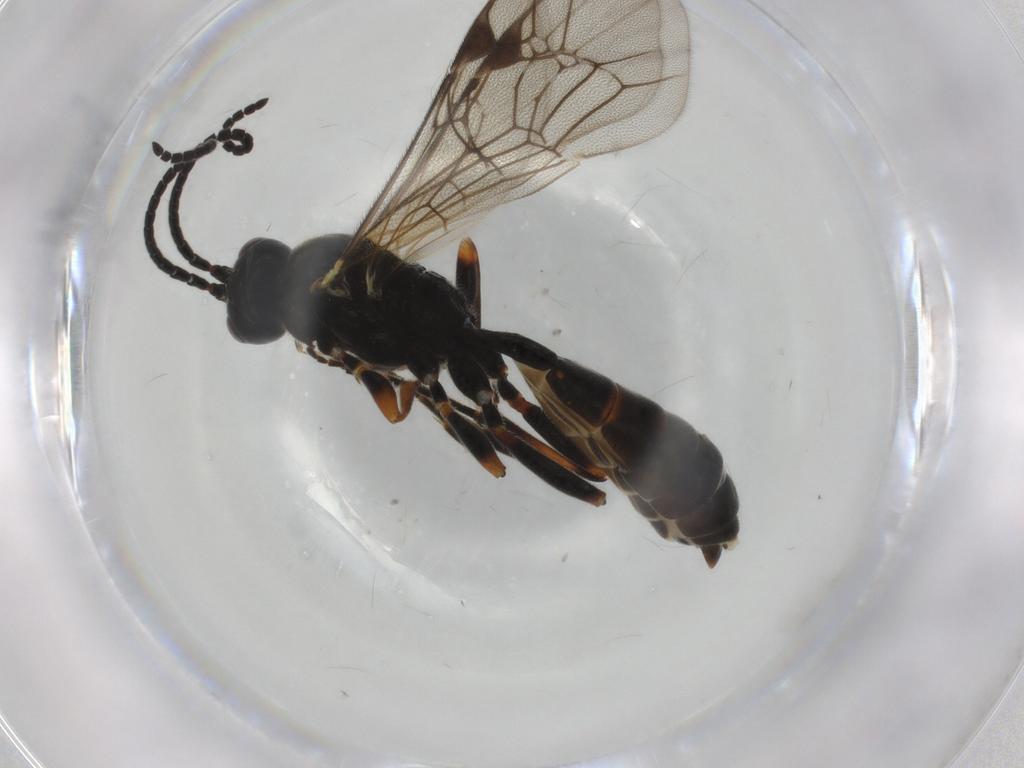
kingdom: Animalia
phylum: Arthropoda
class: Insecta
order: Hymenoptera
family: Ichneumonidae
